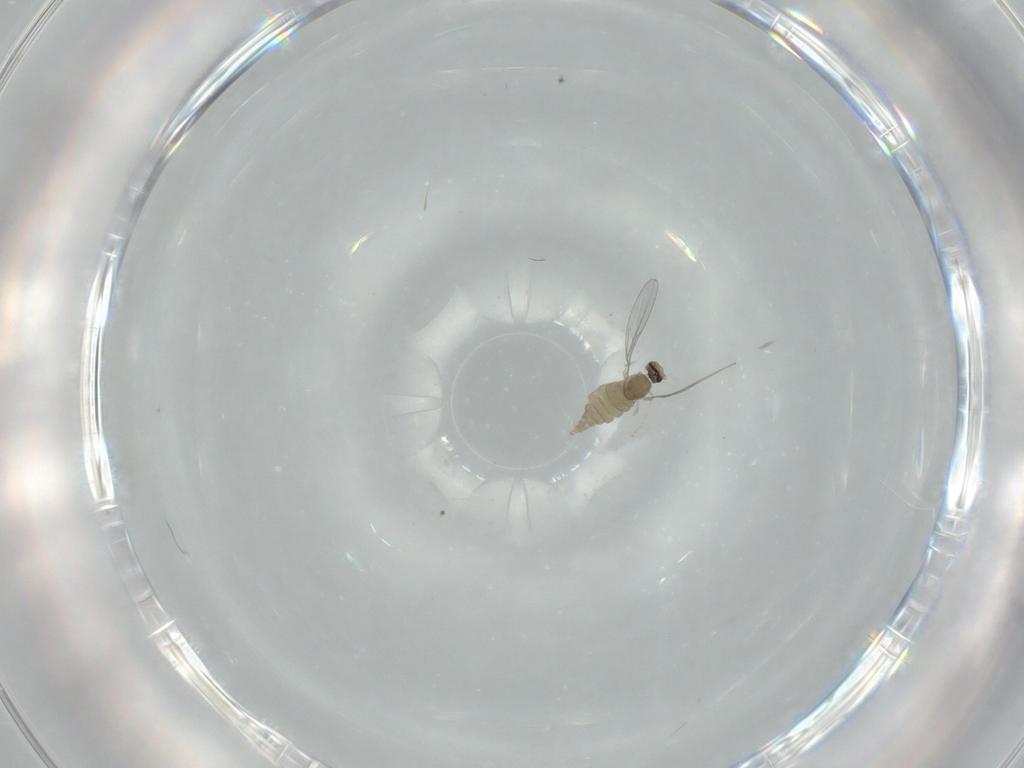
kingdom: Animalia
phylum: Arthropoda
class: Insecta
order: Diptera
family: Cecidomyiidae
